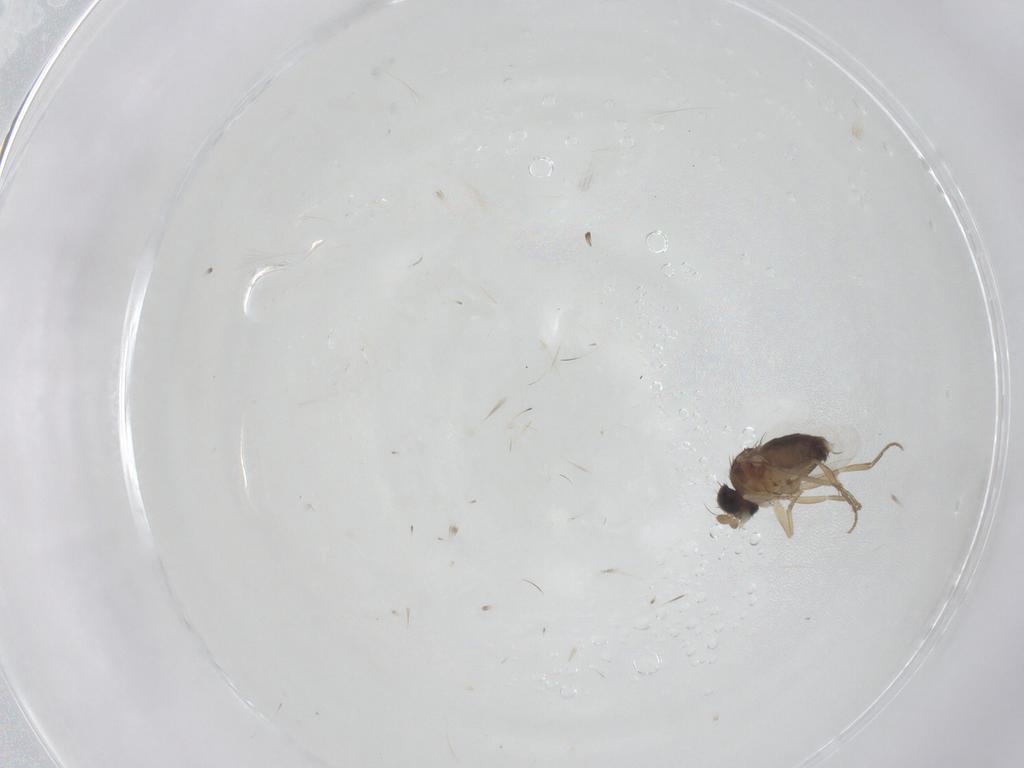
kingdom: Animalia
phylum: Arthropoda
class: Insecta
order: Diptera
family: Phoridae
